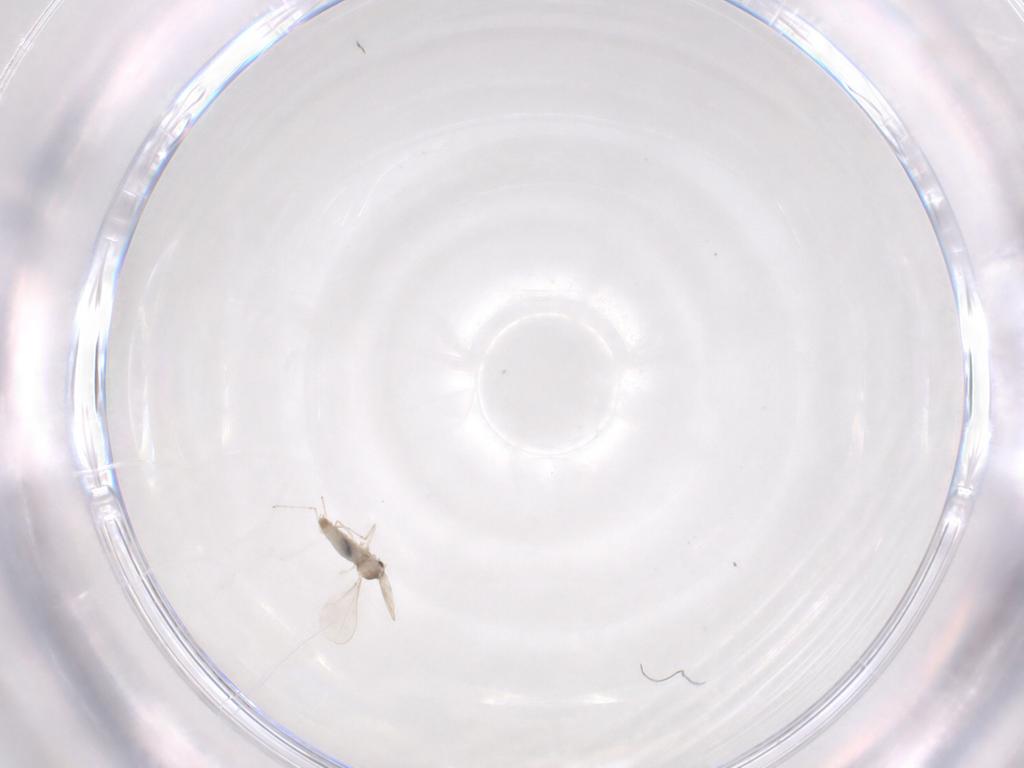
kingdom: Animalia
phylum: Arthropoda
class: Insecta
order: Diptera
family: Cecidomyiidae
